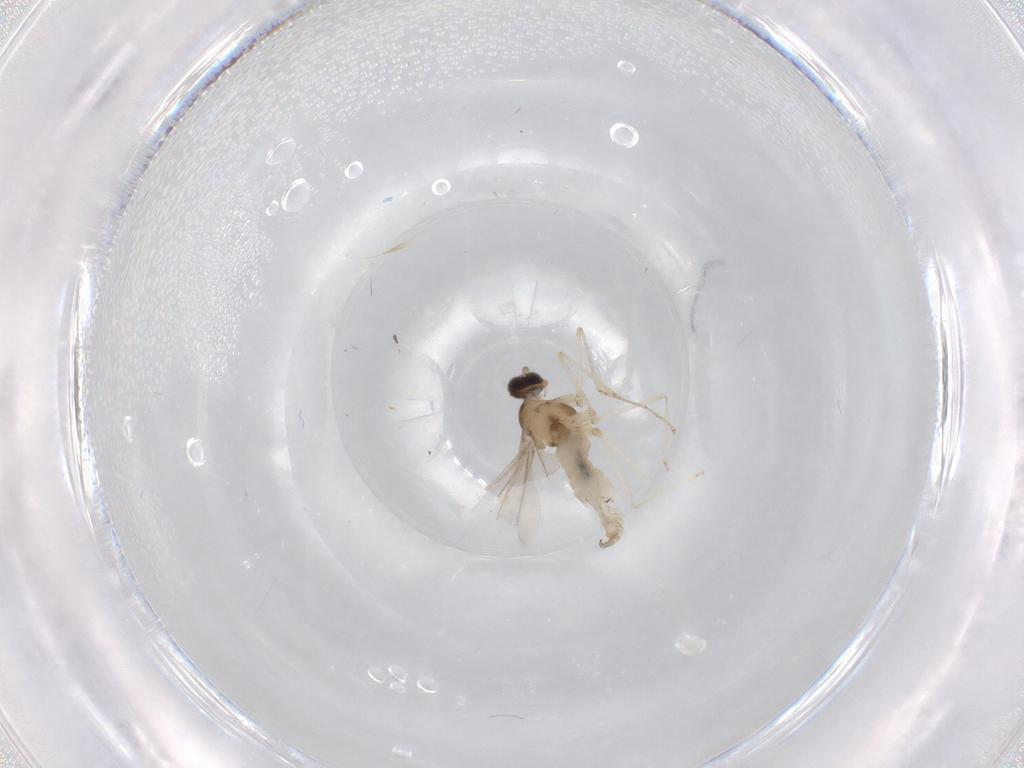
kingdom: Animalia
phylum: Arthropoda
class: Insecta
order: Diptera
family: Cecidomyiidae
